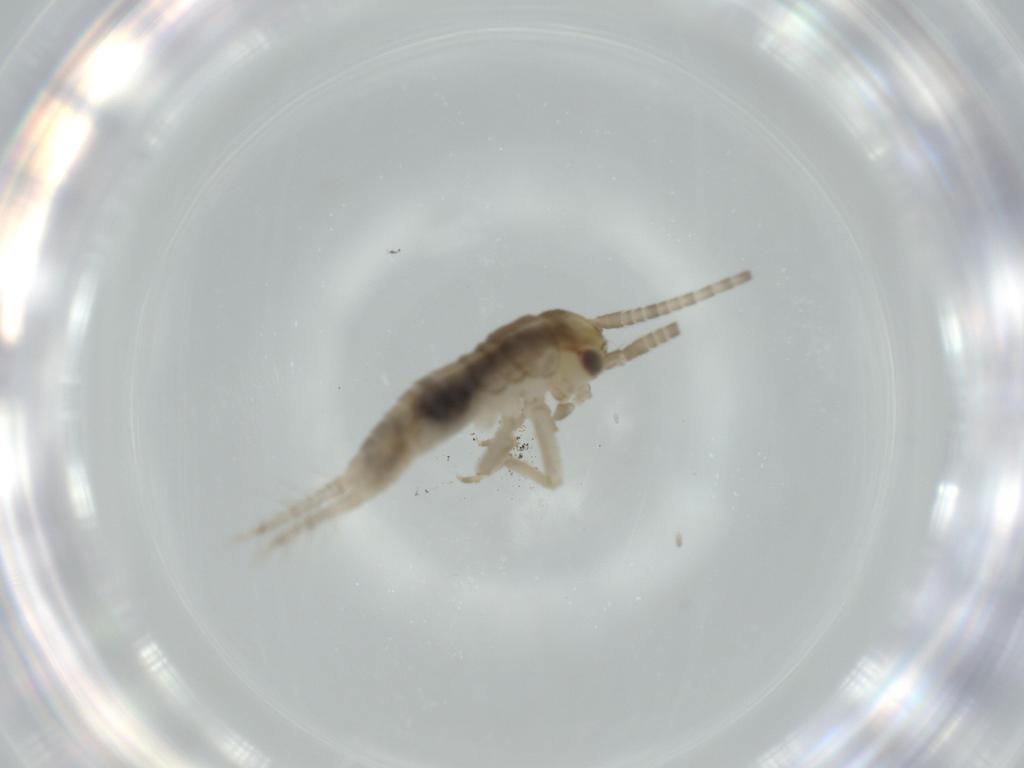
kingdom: Animalia
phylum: Arthropoda
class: Insecta
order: Orthoptera
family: Gryllidae
